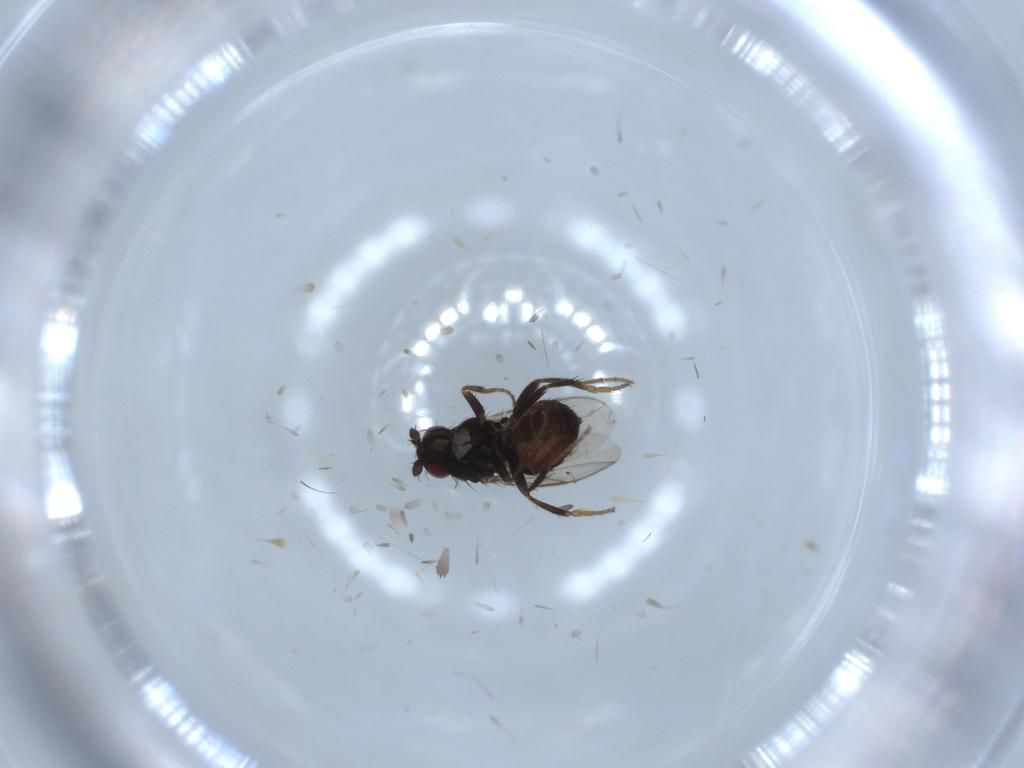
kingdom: Animalia
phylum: Arthropoda
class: Insecta
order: Diptera
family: Sphaeroceridae
